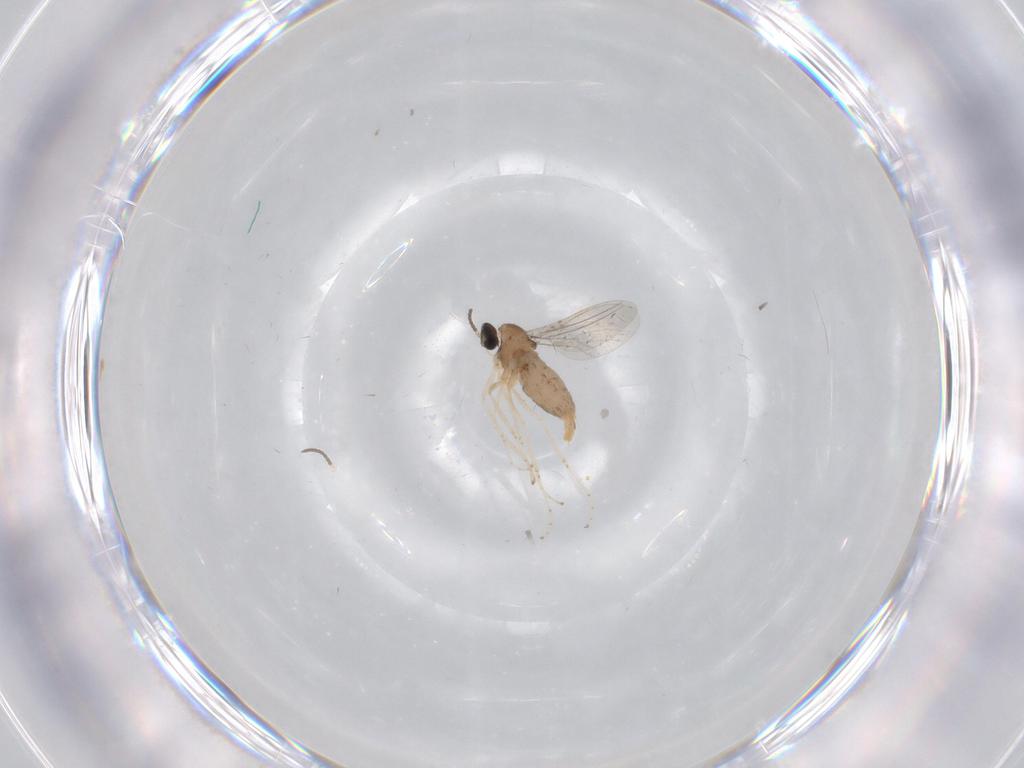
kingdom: Animalia
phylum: Arthropoda
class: Insecta
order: Diptera
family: Cecidomyiidae
